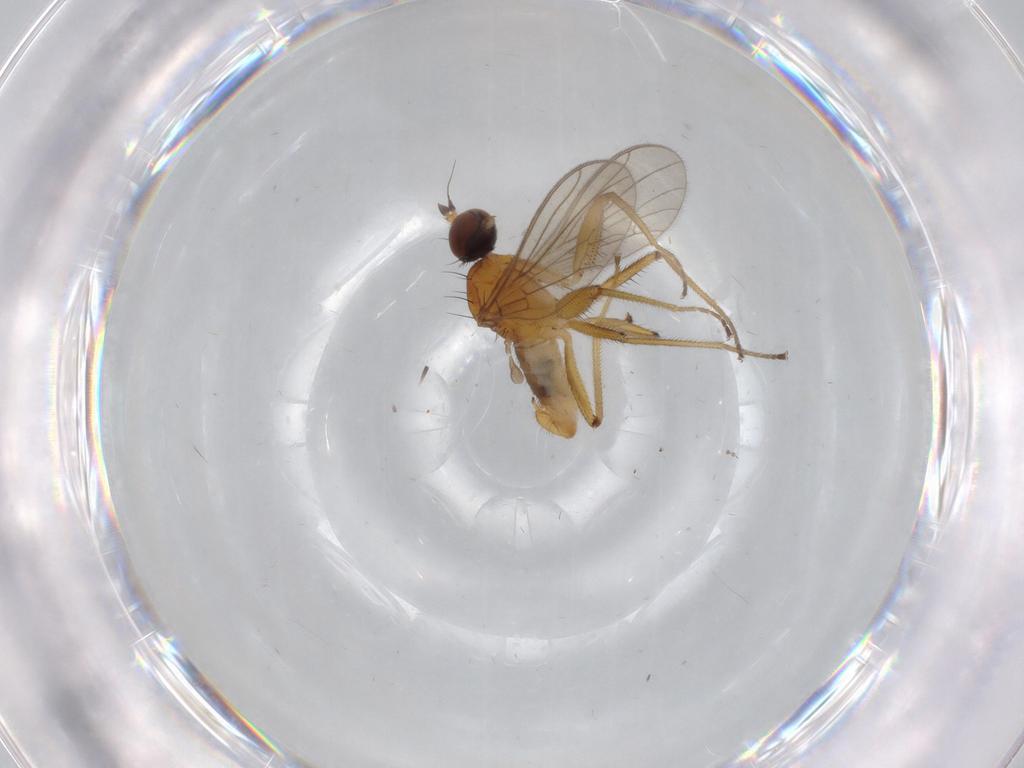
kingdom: Animalia
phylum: Arthropoda
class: Insecta
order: Diptera
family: Empididae
